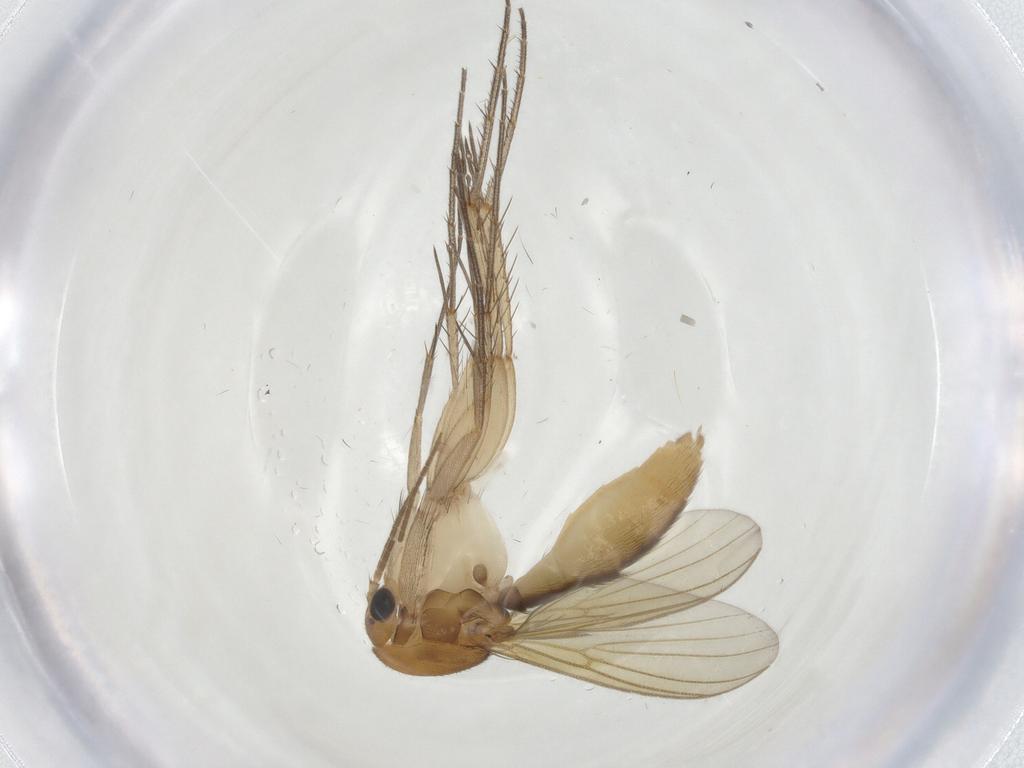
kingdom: Animalia
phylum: Arthropoda
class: Insecta
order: Diptera
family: Mycetophilidae
